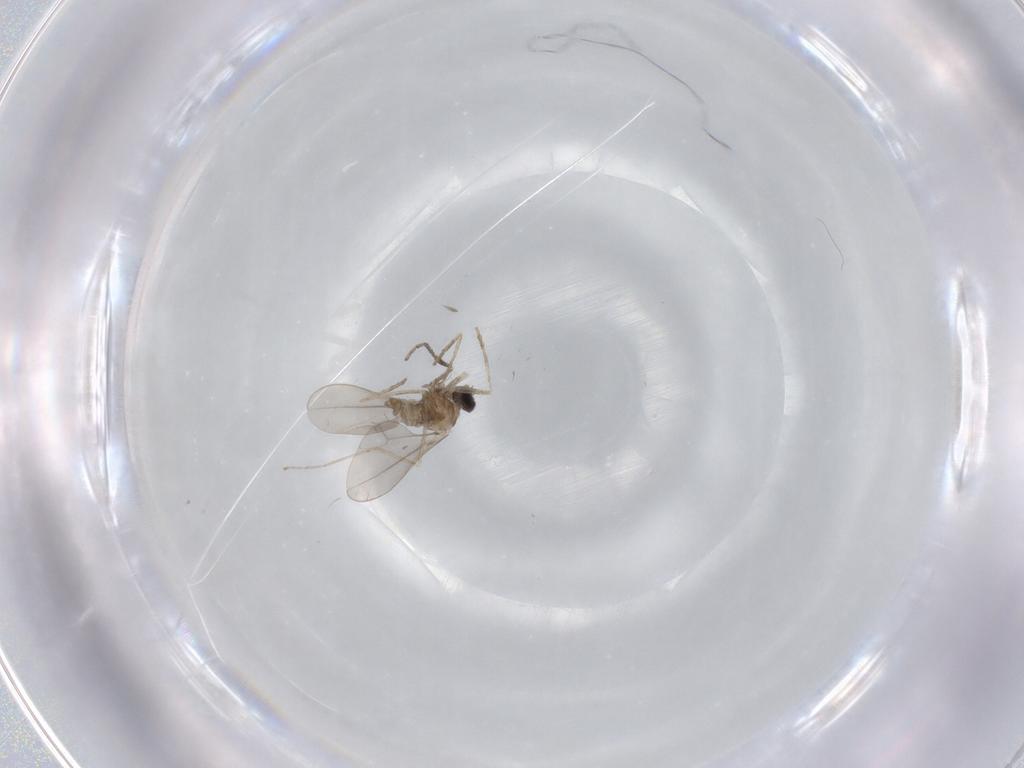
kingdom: Animalia
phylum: Arthropoda
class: Insecta
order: Diptera
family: Cecidomyiidae
